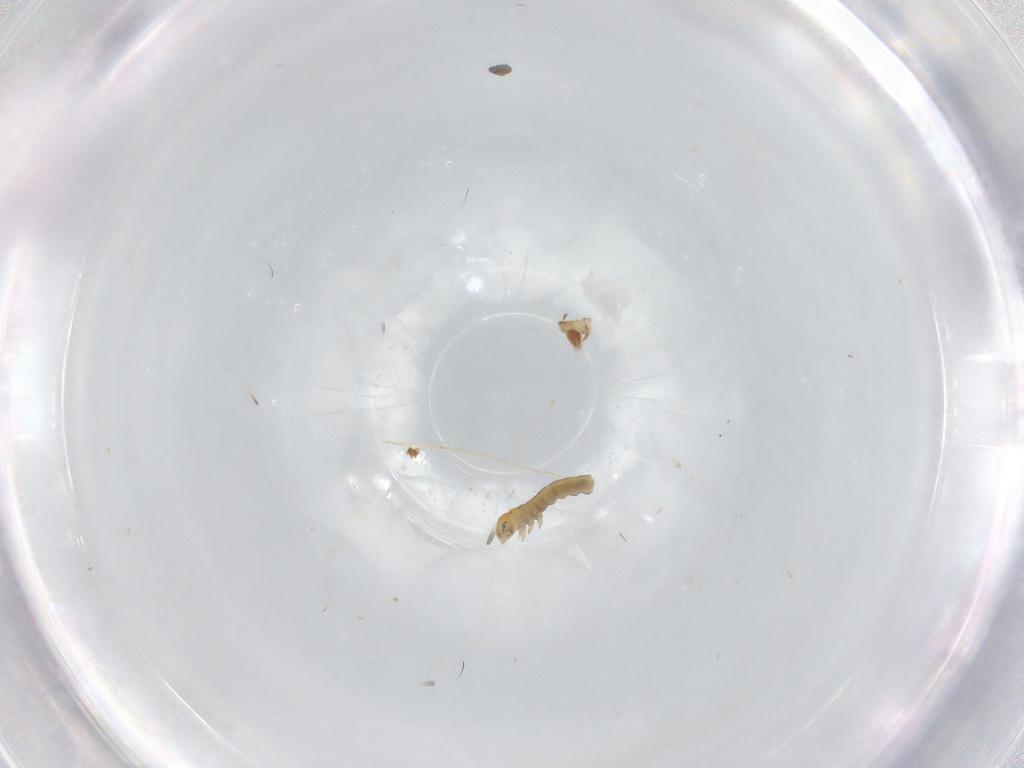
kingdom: Animalia
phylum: Arthropoda
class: Insecta
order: Lepidoptera
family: Geometridae
